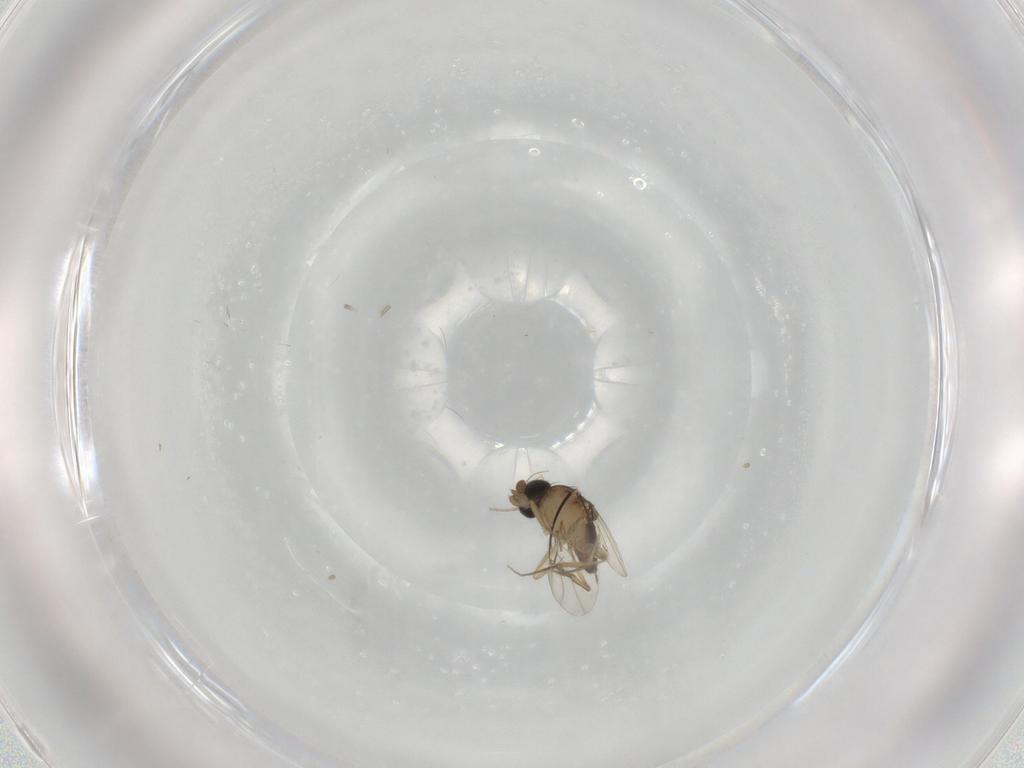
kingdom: Animalia
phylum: Arthropoda
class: Insecta
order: Diptera
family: Phoridae
